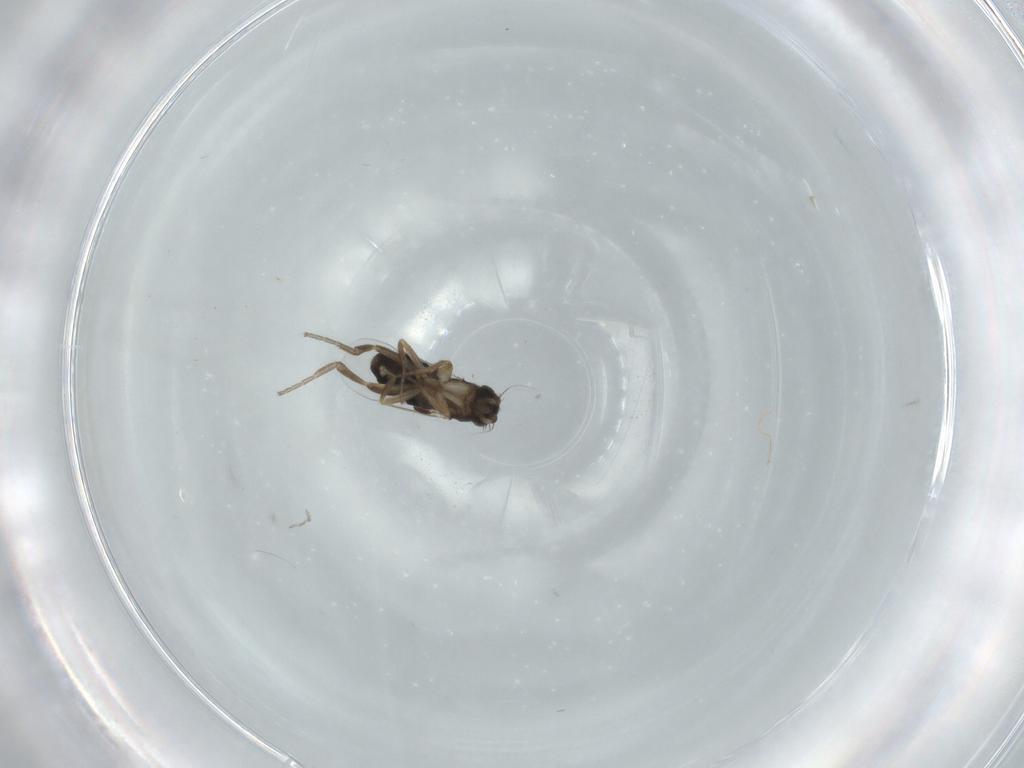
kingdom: Animalia
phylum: Arthropoda
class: Insecta
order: Diptera
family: Phoridae
